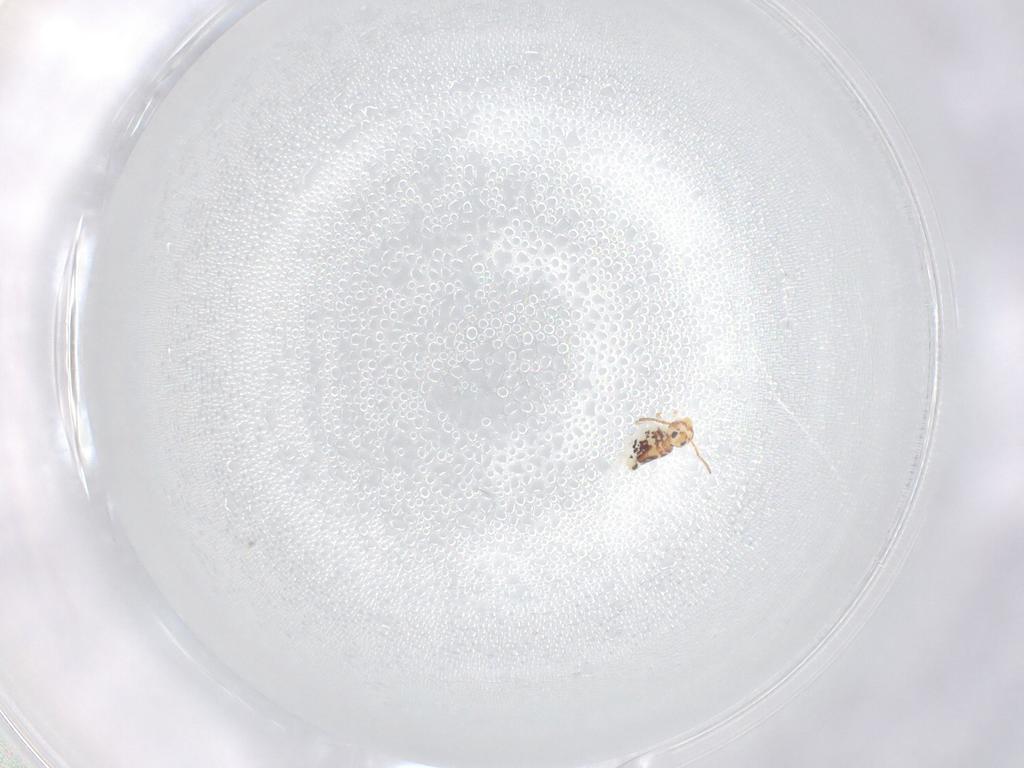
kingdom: Animalia
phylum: Arthropoda
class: Collembola
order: Symphypleona
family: Bourletiellidae
